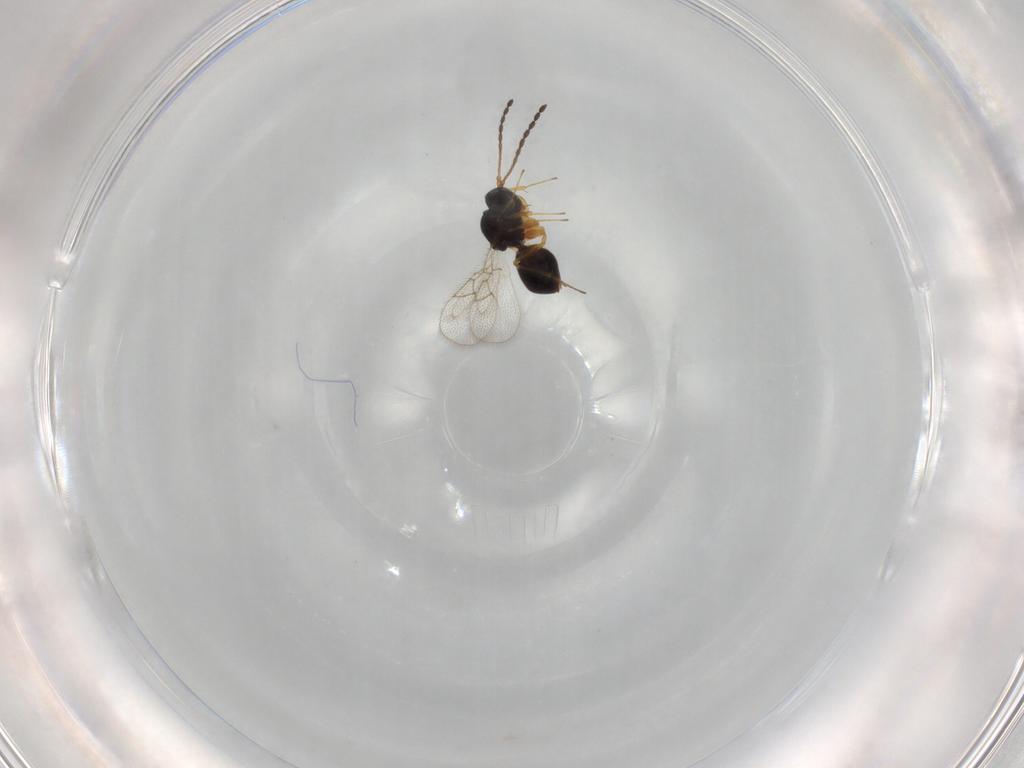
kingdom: Animalia
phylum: Arthropoda
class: Insecta
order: Hymenoptera
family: Figitidae
